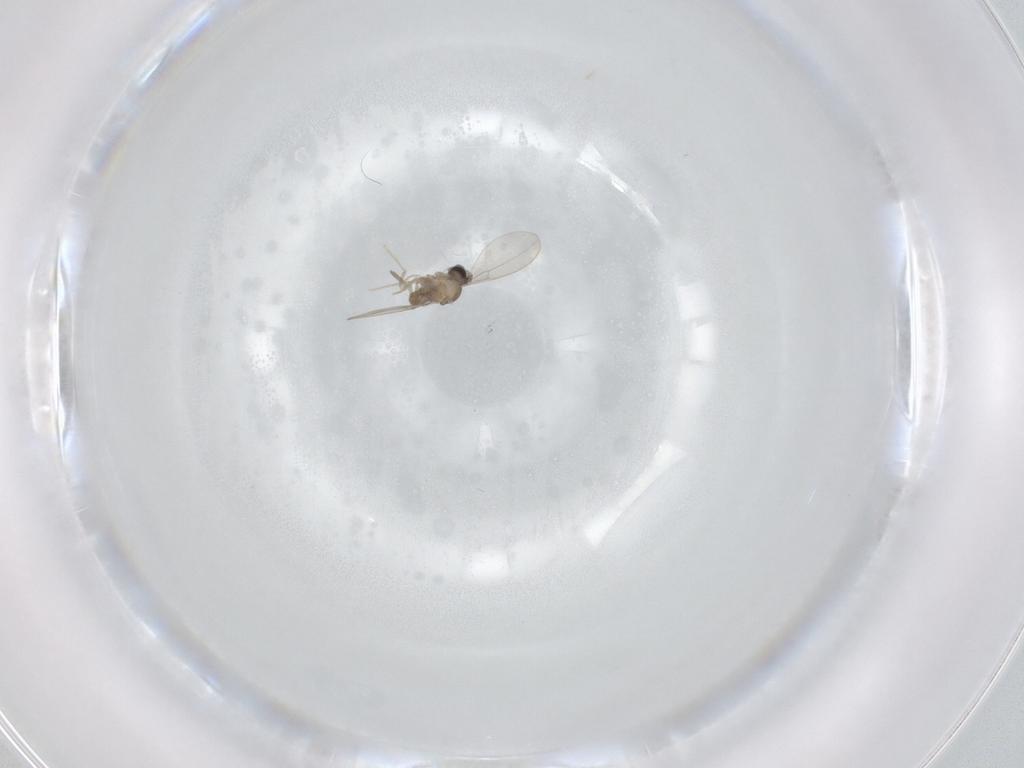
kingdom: Animalia
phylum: Arthropoda
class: Insecta
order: Diptera
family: Cecidomyiidae
